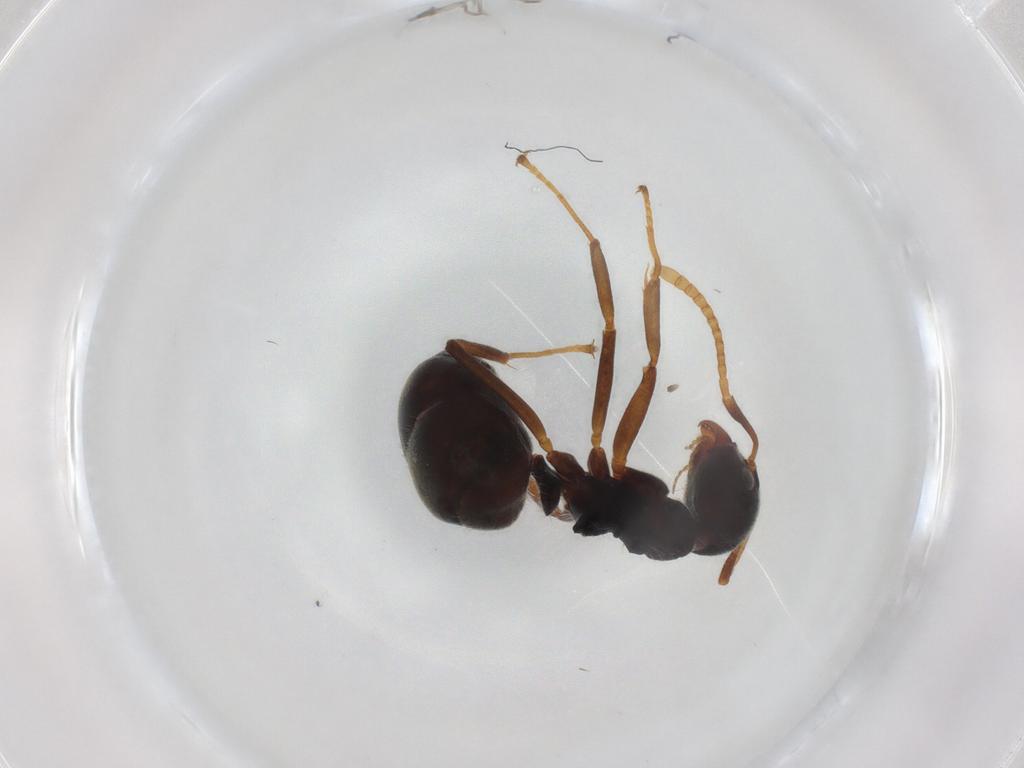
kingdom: Animalia
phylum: Arthropoda
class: Insecta
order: Hymenoptera
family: Formicidae
